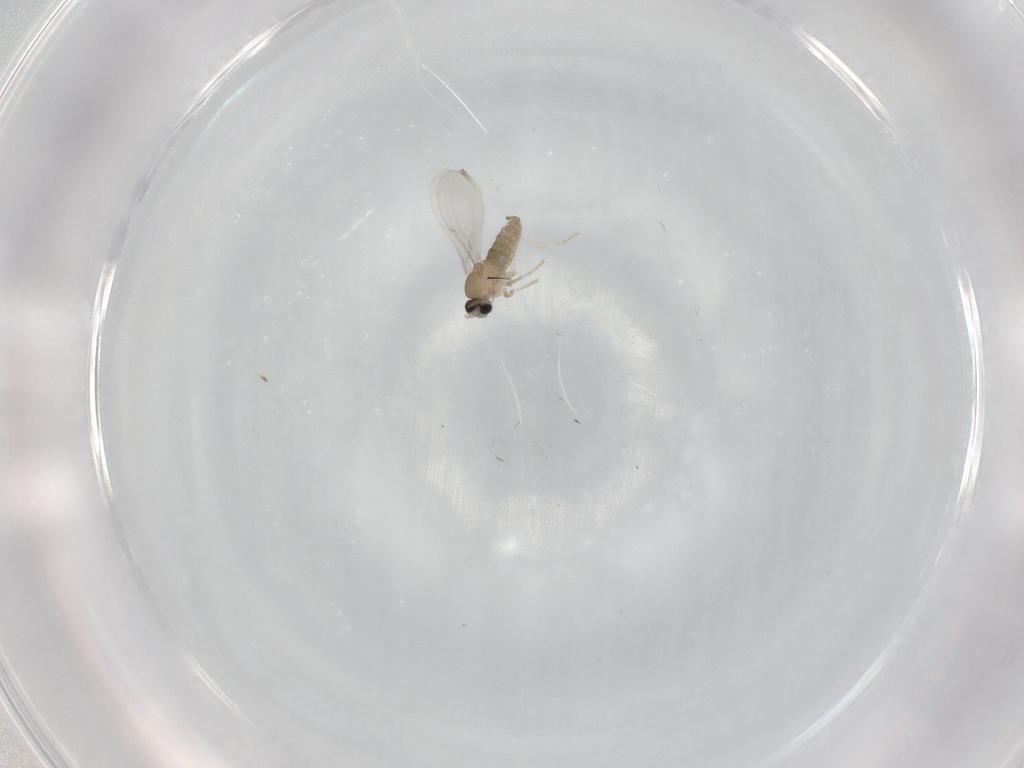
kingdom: Animalia
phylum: Arthropoda
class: Insecta
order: Diptera
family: Cecidomyiidae
